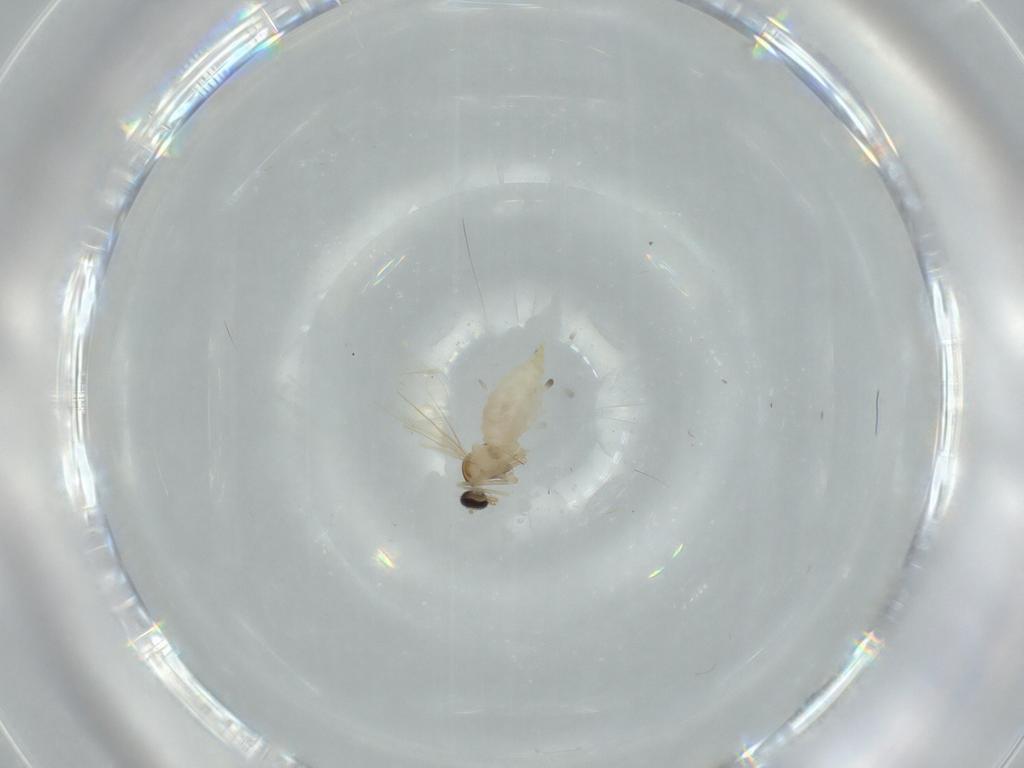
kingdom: Animalia
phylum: Arthropoda
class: Insecta
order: Diptera
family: Cecidomyiidae
